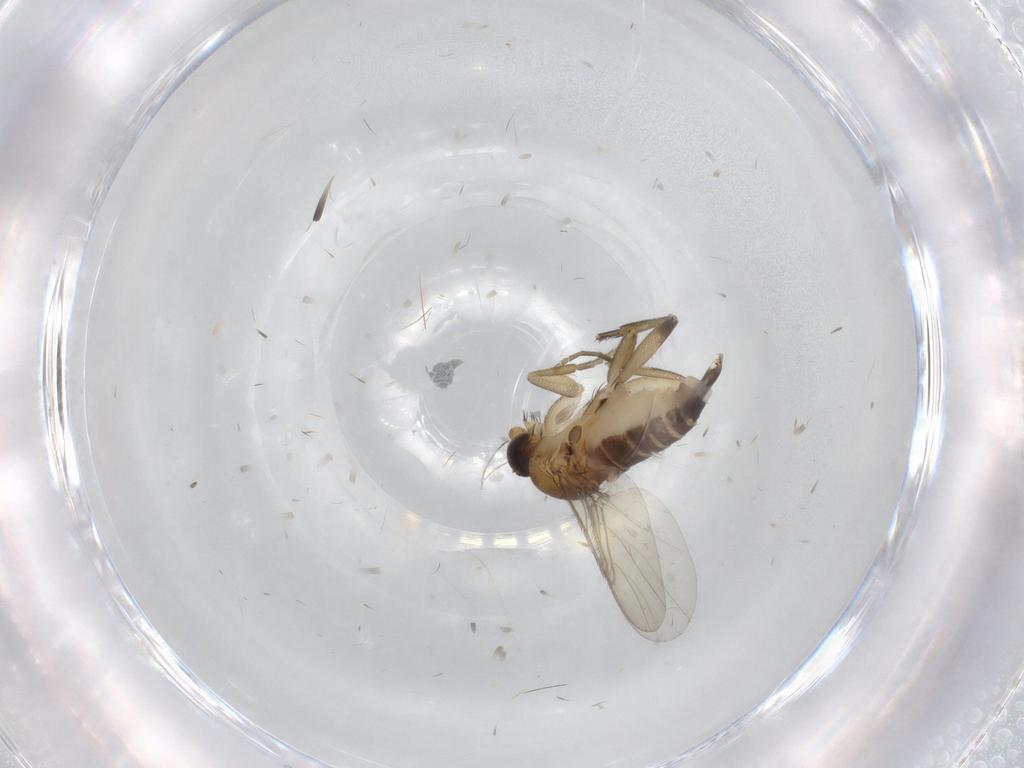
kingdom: Animalia
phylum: Arthropoda
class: Insecta
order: Diptera
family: Phoridae
